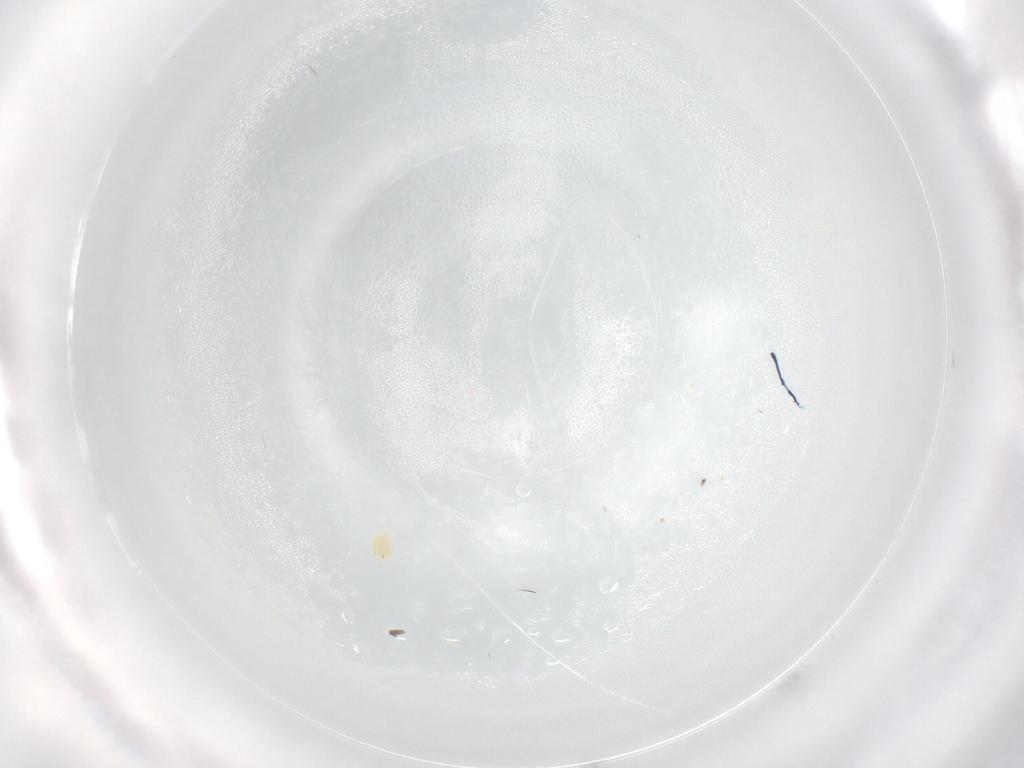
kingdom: Animalia
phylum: Arthropoda
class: Arachnida
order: Trombidiformes
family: Tetranychidae
